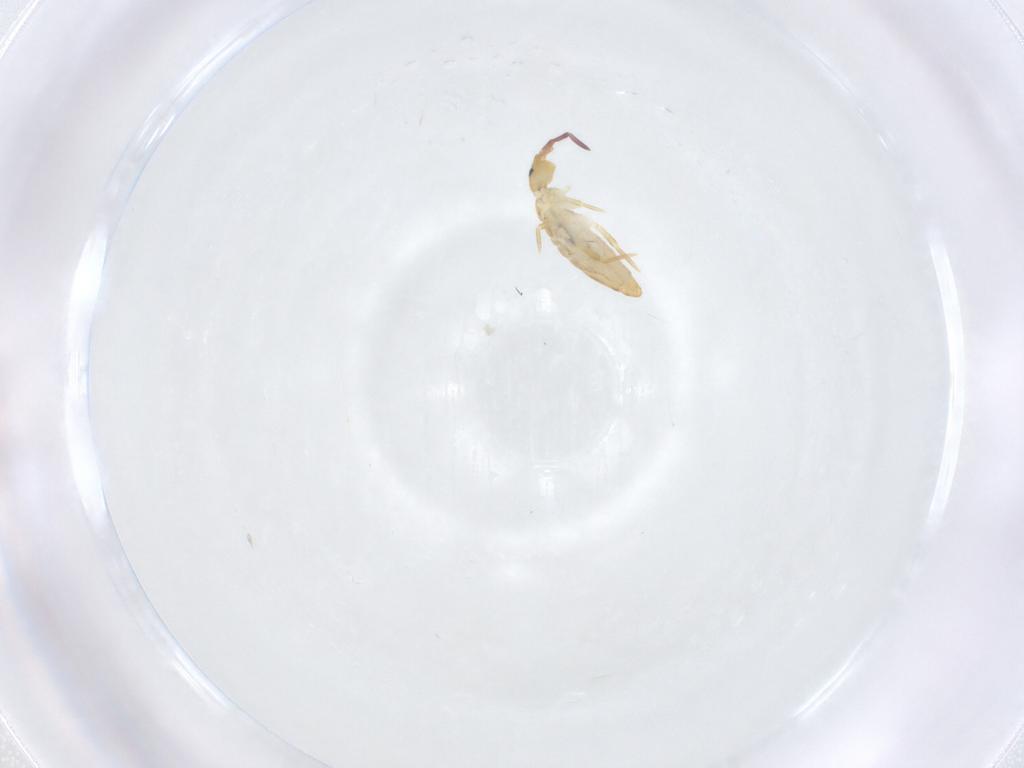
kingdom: Animalia
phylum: Arthropoda
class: Collembola
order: Entomobryomorpha
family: Entomobryidae
